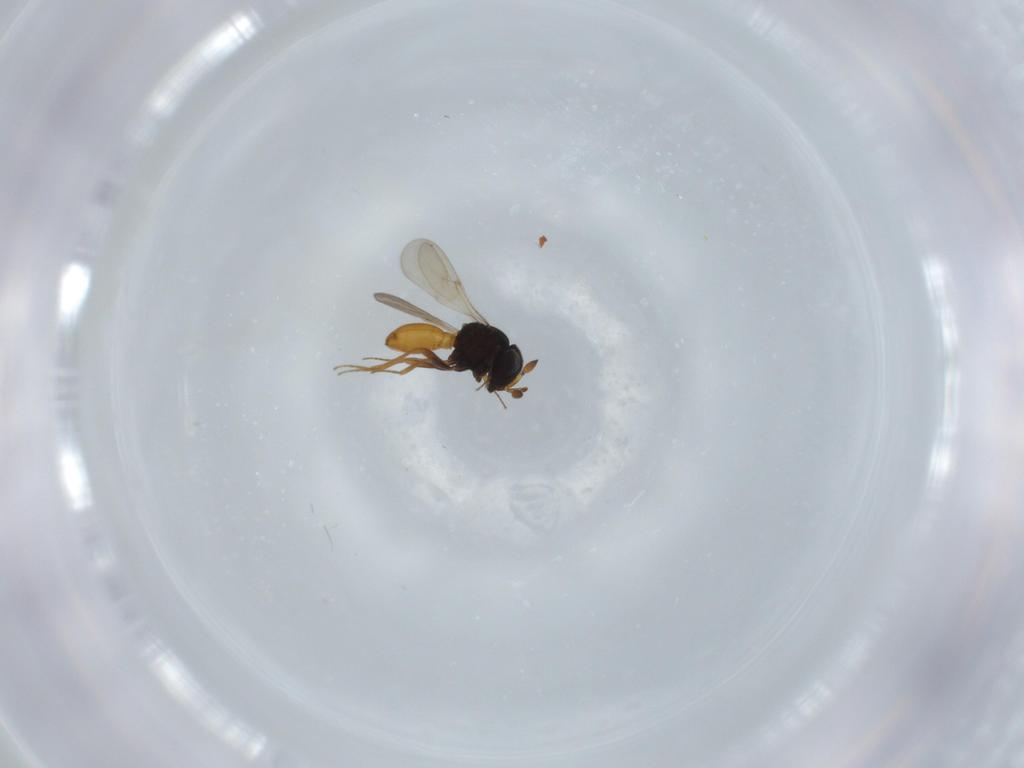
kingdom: Animalia
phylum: Arthropoda
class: Insecta
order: Hymenoptera
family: Scelionidae
